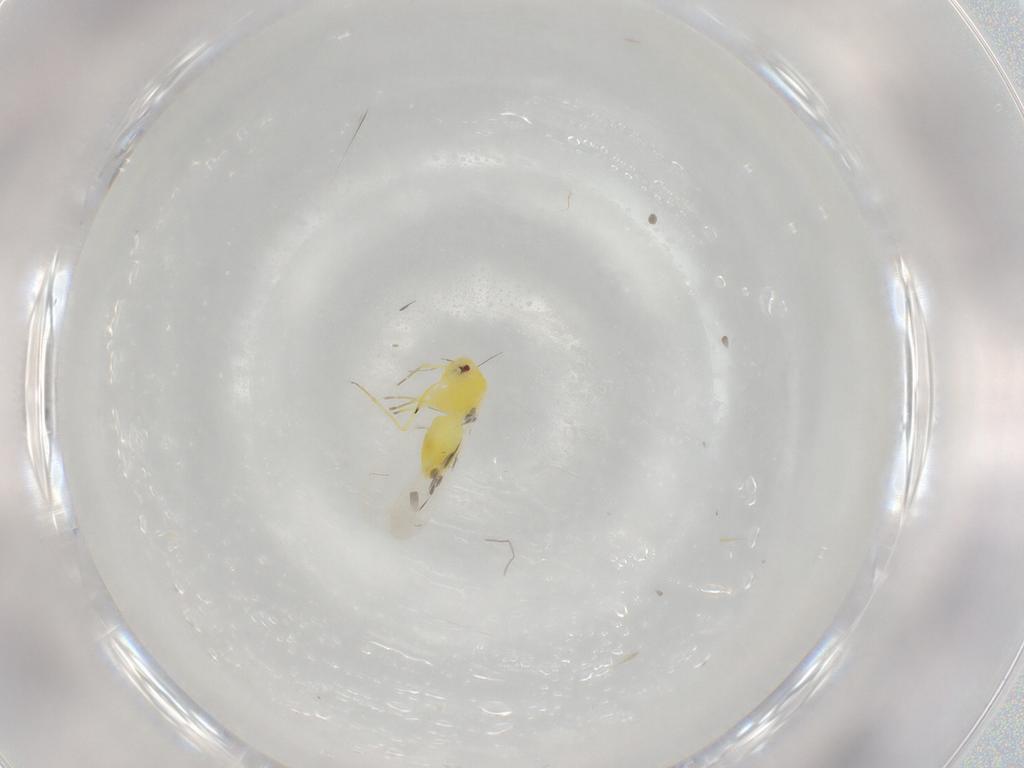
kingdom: Animalia
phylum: Arthropoda
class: Insecta
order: Hemiptera
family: Aleyrodidae
